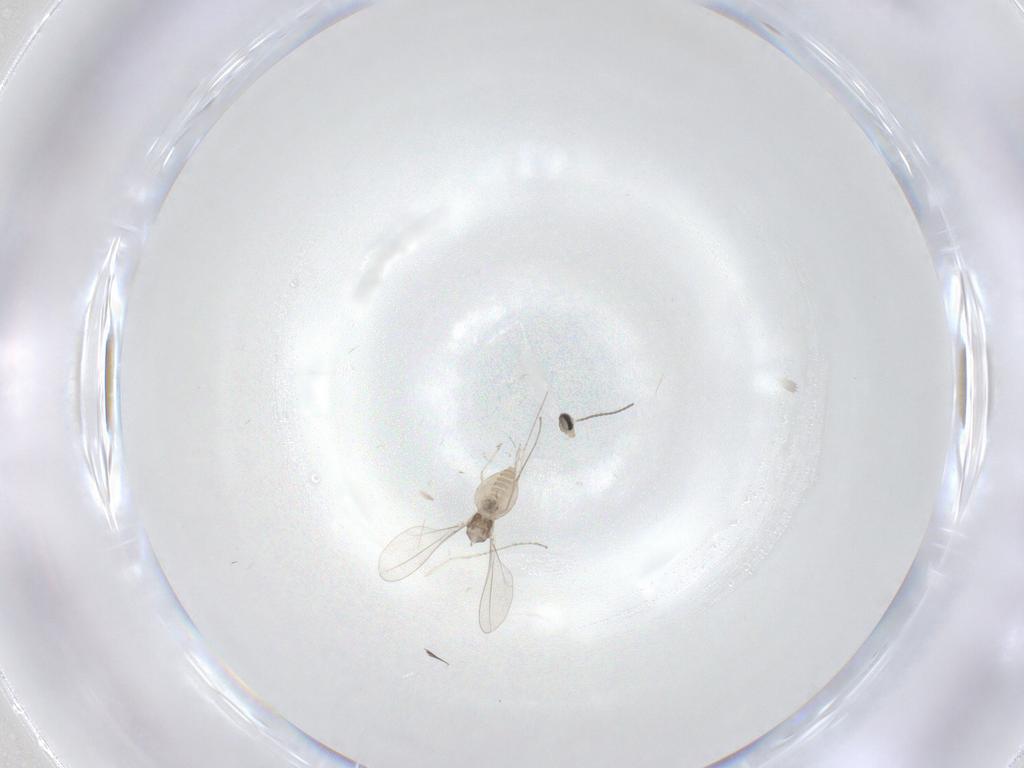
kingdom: Animalia
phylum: Arthropoda
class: Insecta
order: Diptera
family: Cecidomyiidae
